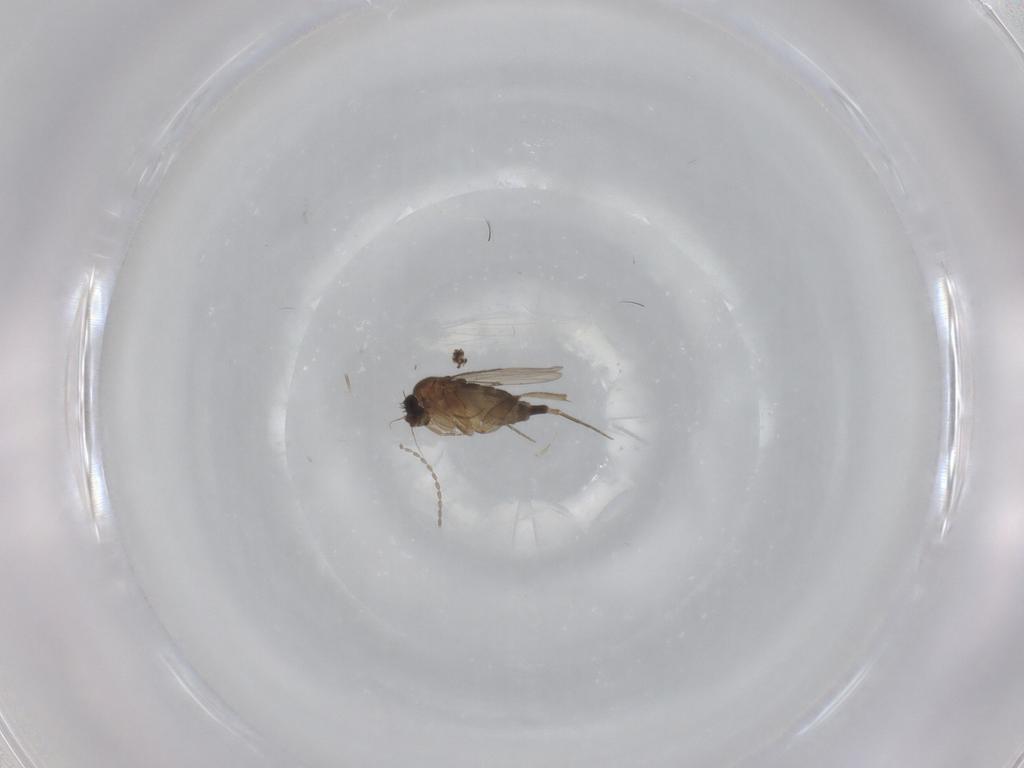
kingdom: Animalia
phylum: Arthropoda
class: Insecta
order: Diptera
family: Phoridae
